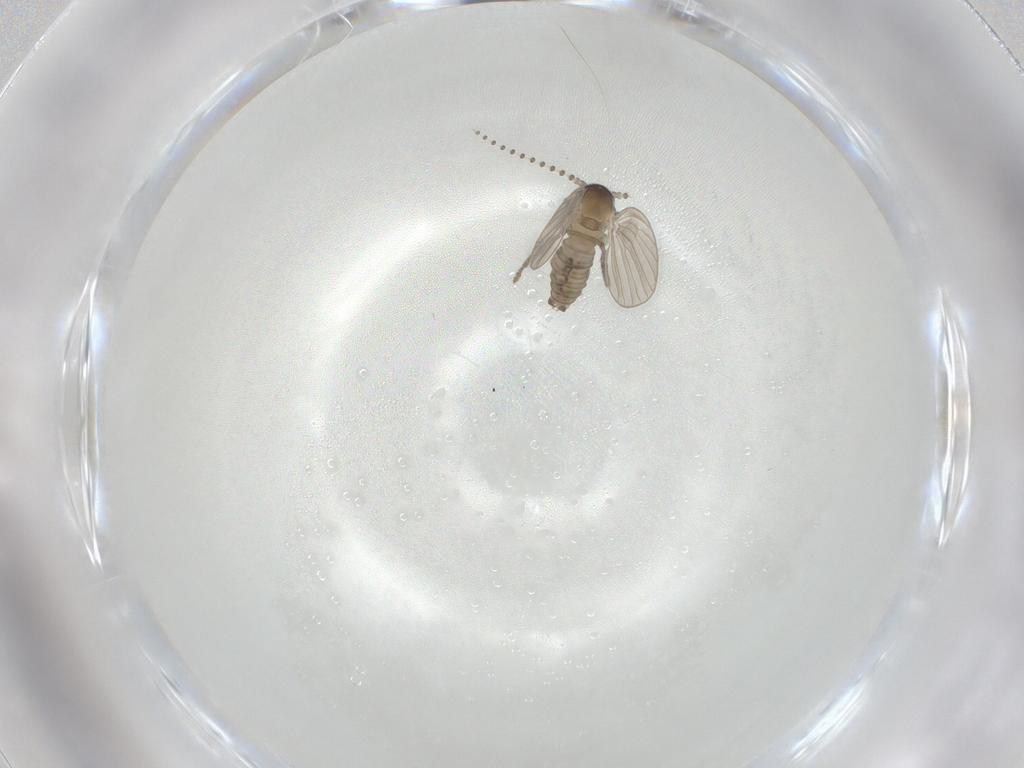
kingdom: Animalia
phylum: Arthropoda
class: Insecta
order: Diptera
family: Psychodidae
